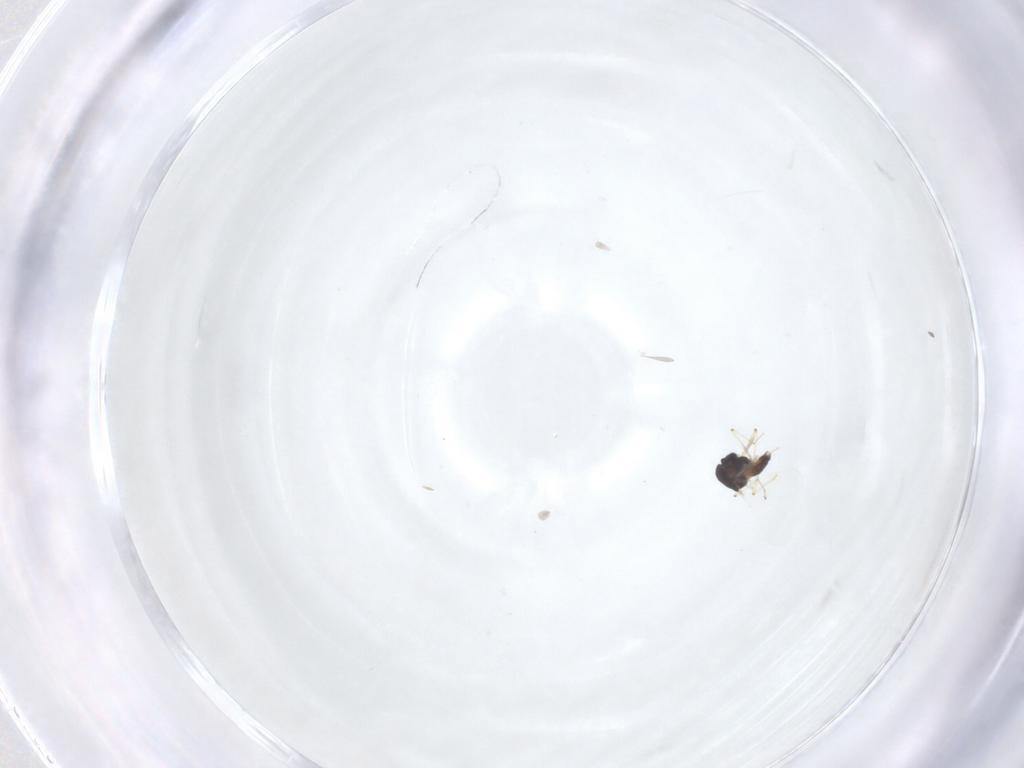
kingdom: Animalia
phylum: Arthropoda
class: Insecta
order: Diptera
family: Chironomidae
